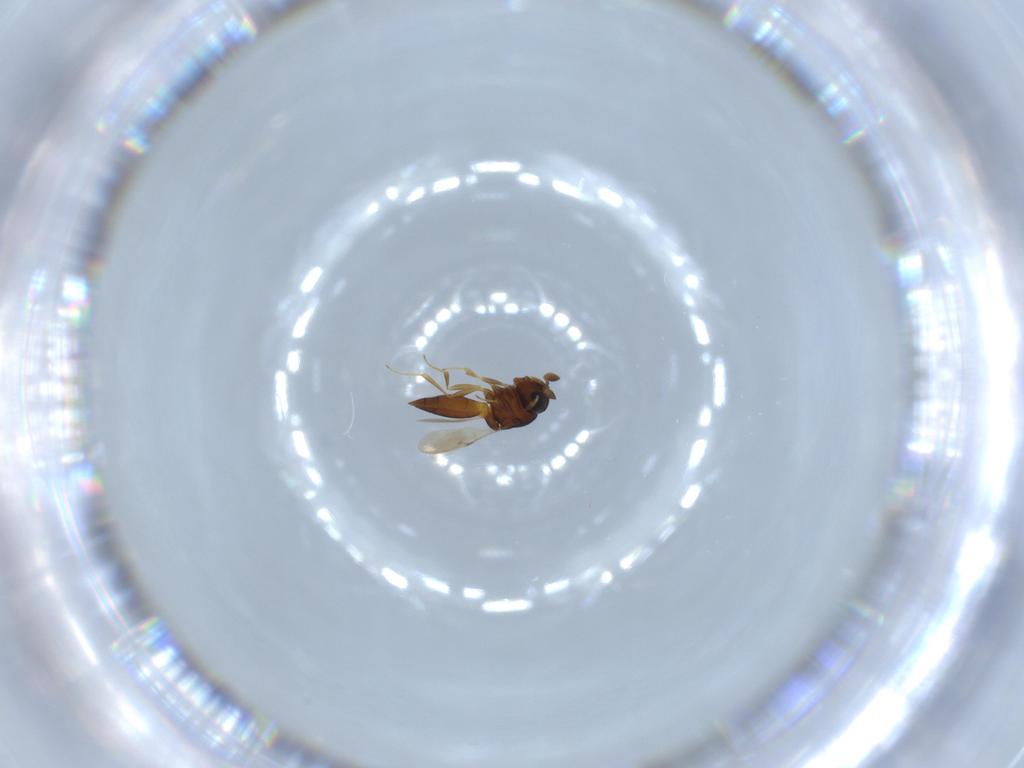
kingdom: Animalia
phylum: Arthropoda
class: Insecta
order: Hymenoptera
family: Scelionidae
